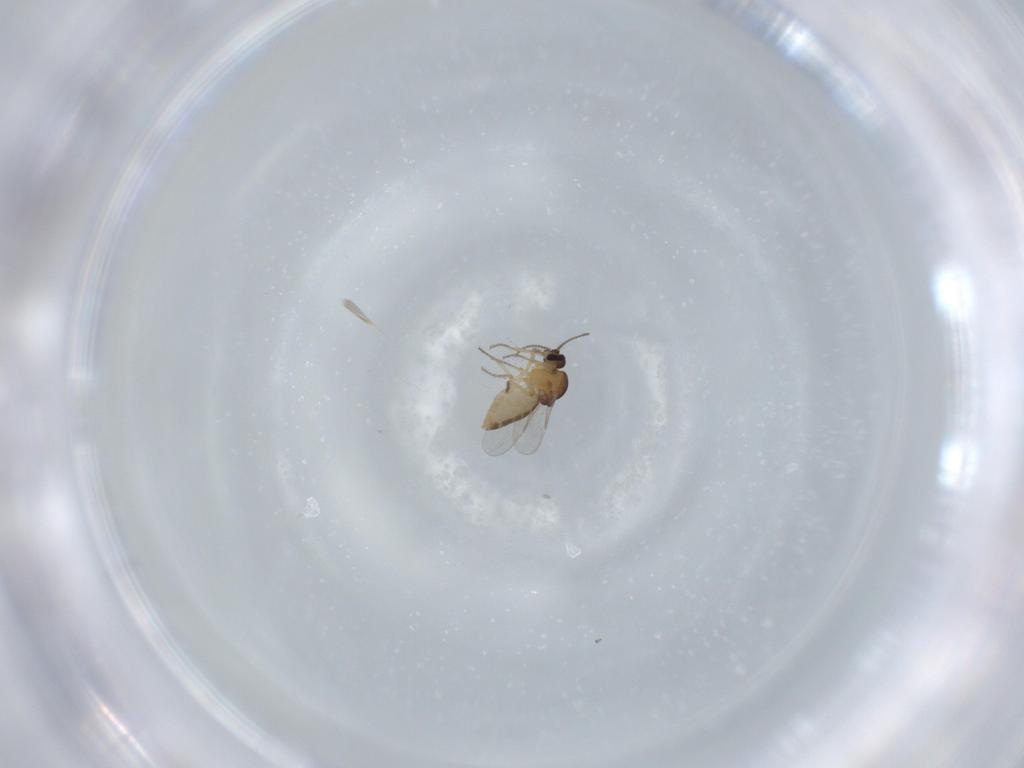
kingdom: Animalia
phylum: Arthropoda
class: Insecta
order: Diptera
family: Ceratopogonidae
